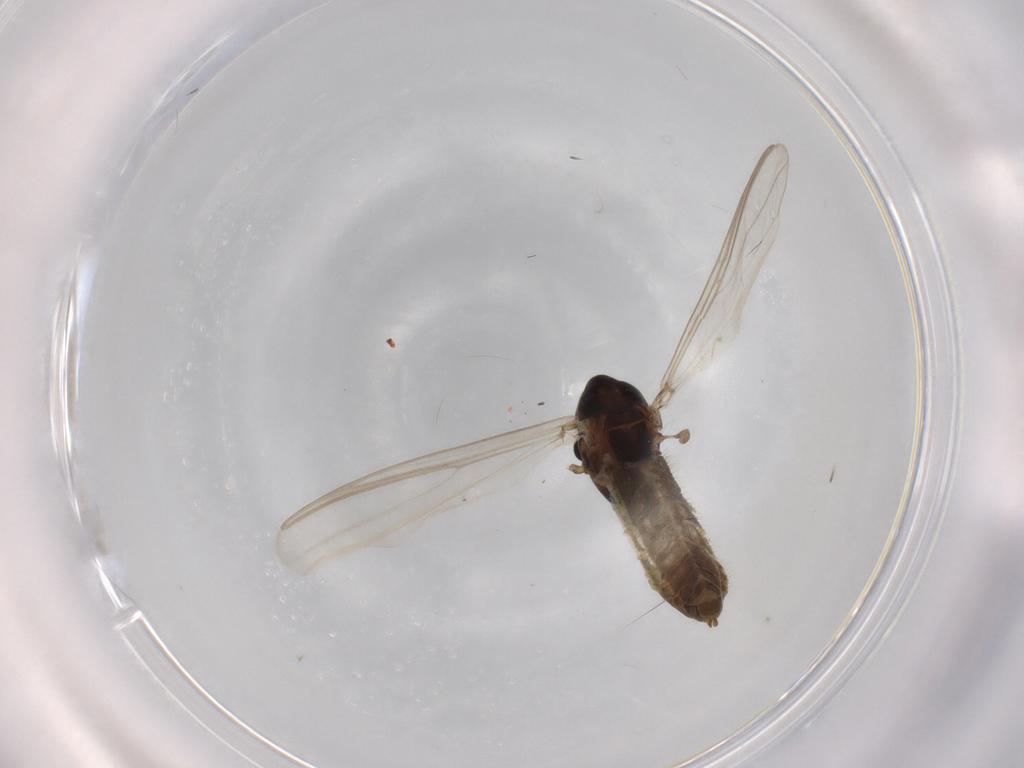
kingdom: Animalia
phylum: Arthropoda
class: Insecta
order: Diptera
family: Chironomidae
